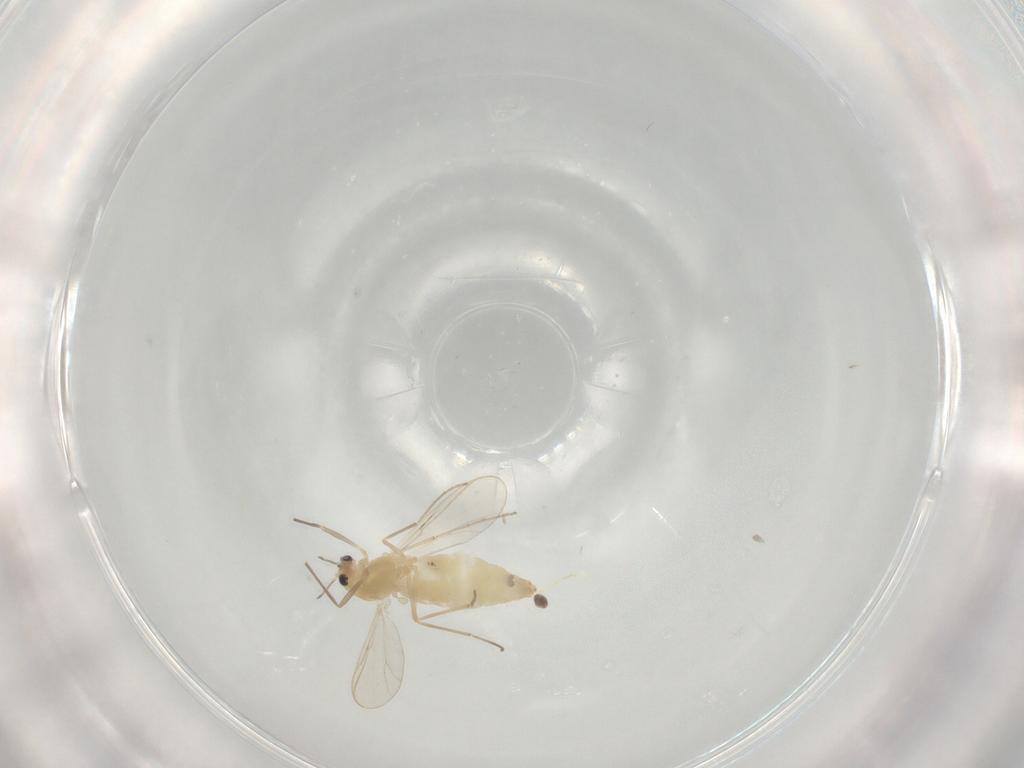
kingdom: Animalia
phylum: Arthropoda
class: Insecta
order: Diptera
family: Chironomidae
